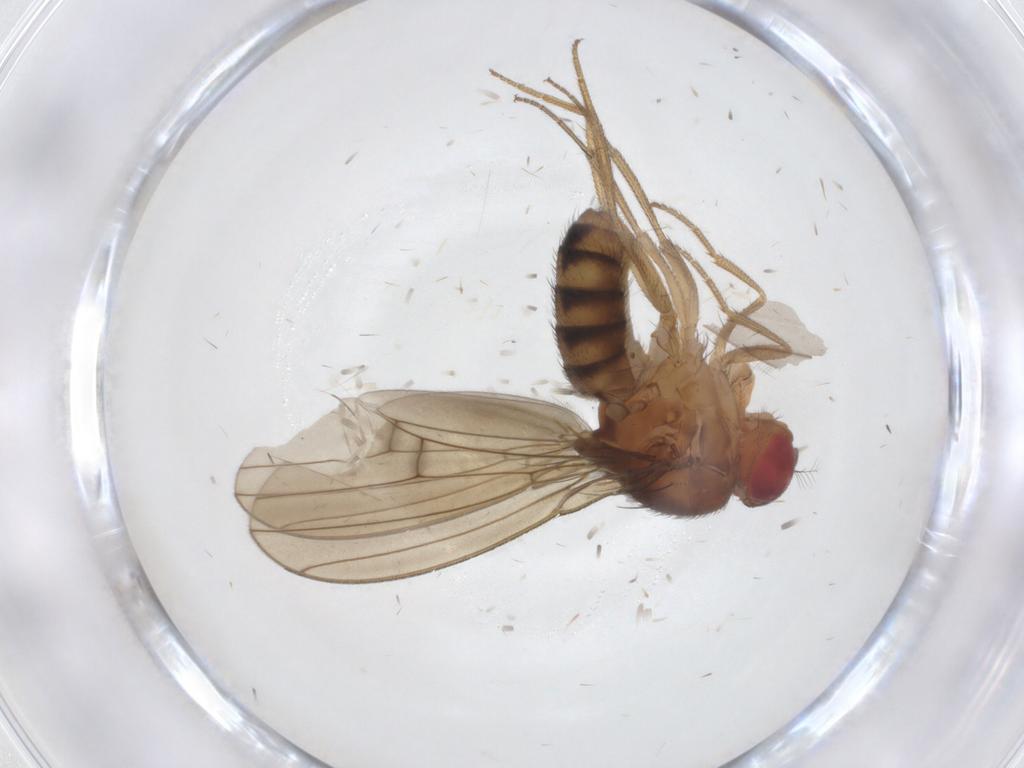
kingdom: Animalia
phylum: Arthropoda
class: Insecta
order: Diptera
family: Drosophilidae
